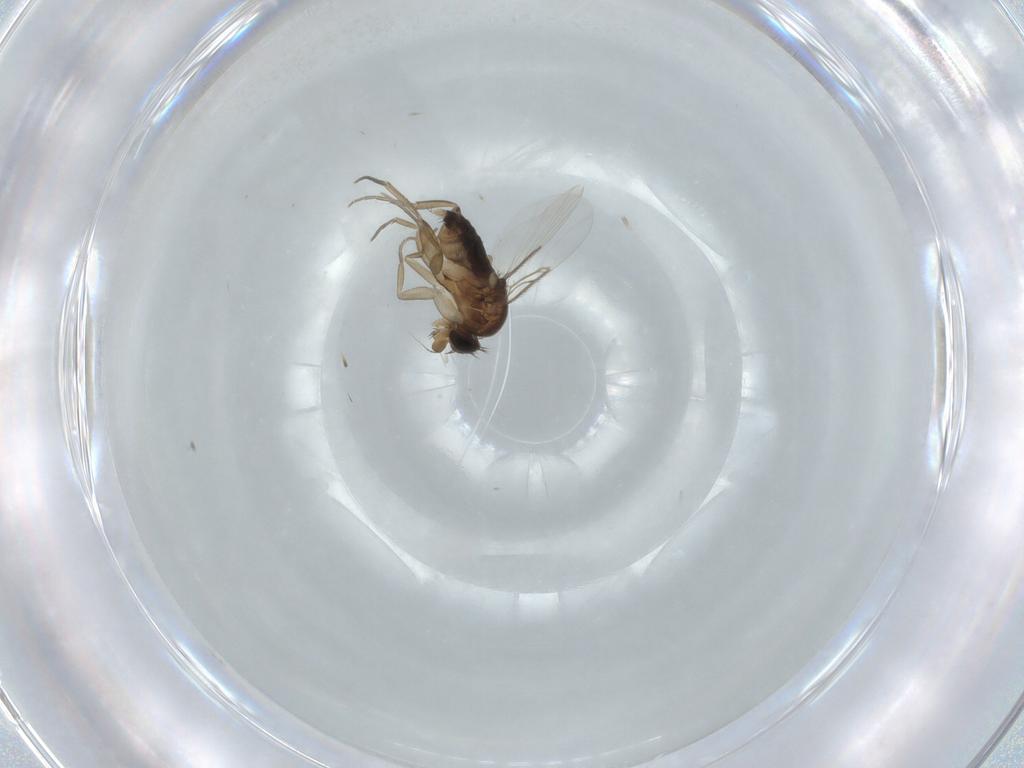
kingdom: Animalia
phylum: Arthropoda
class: Insecta
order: Diptera
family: Phoridae
